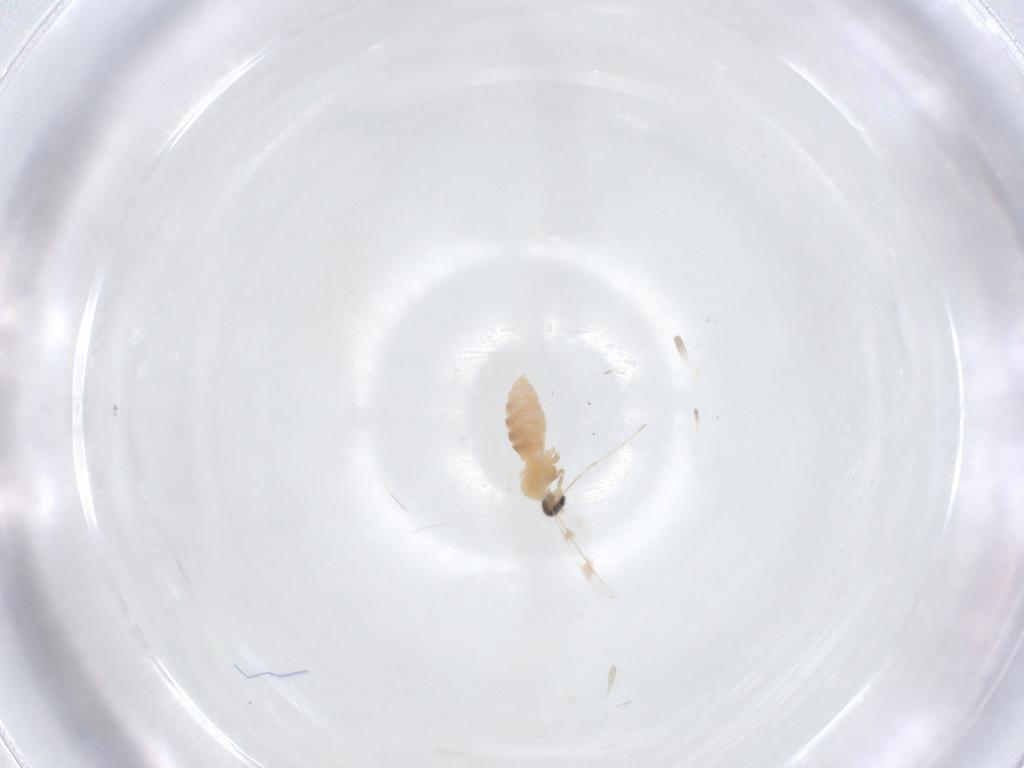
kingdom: Animalia
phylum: Arthropoda
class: Insecta
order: Diptera
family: Cecidomyiidae
